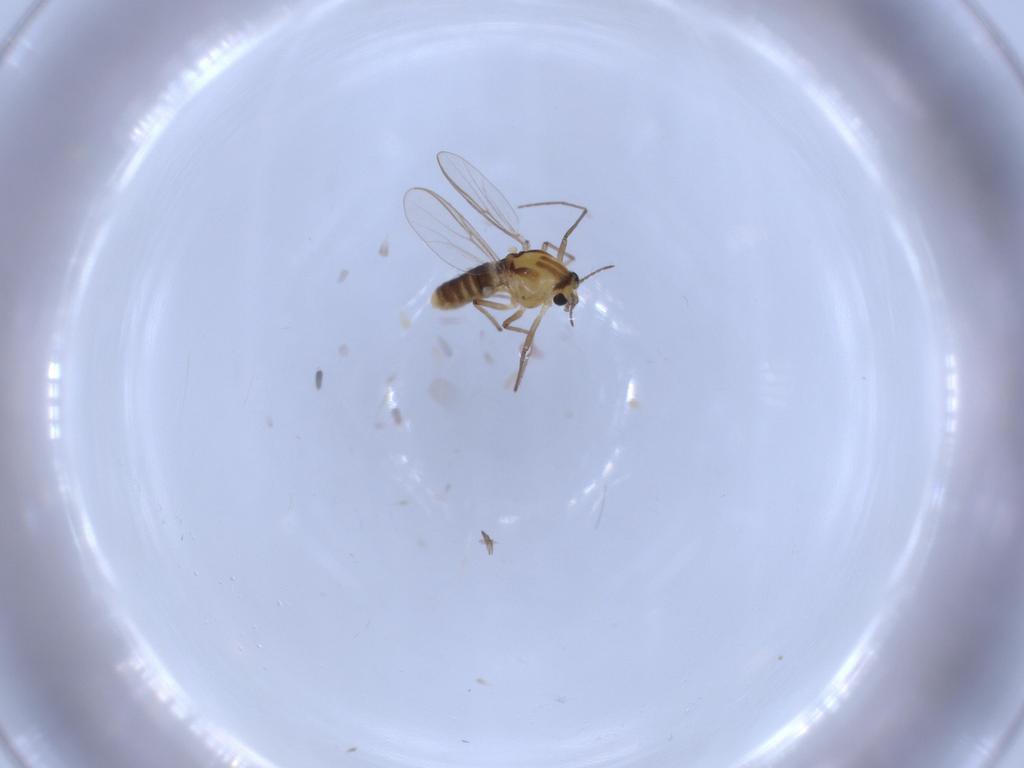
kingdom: Animalia
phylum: Arthropoda
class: Insecta
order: Diptera
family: Chironomidae
